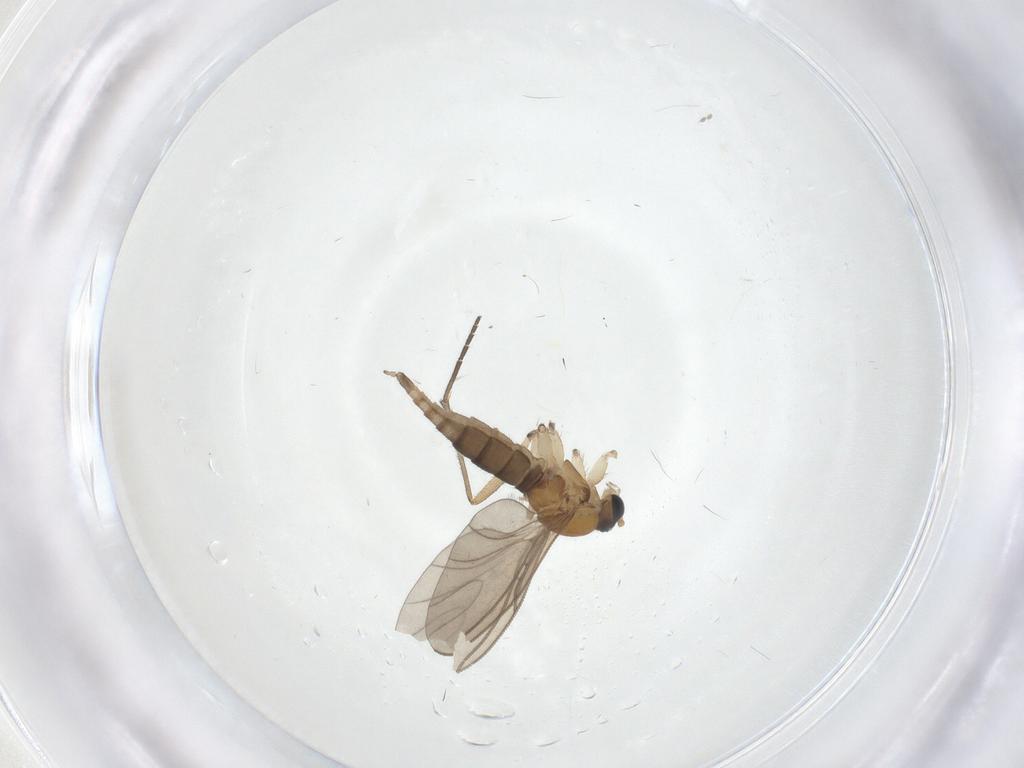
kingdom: Animalia
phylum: Arthropoda
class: Insecta
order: Diptera
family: Sciaridae
